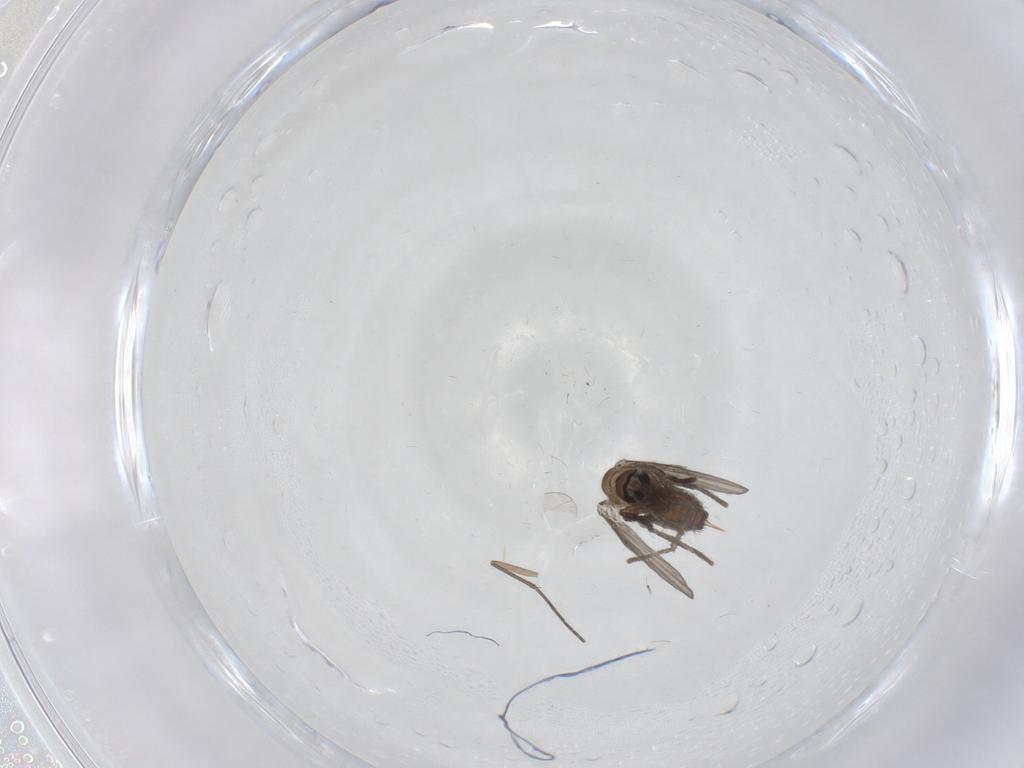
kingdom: Animalia
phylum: Arthropoda
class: Insecta
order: Diptera
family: Psychodidae
